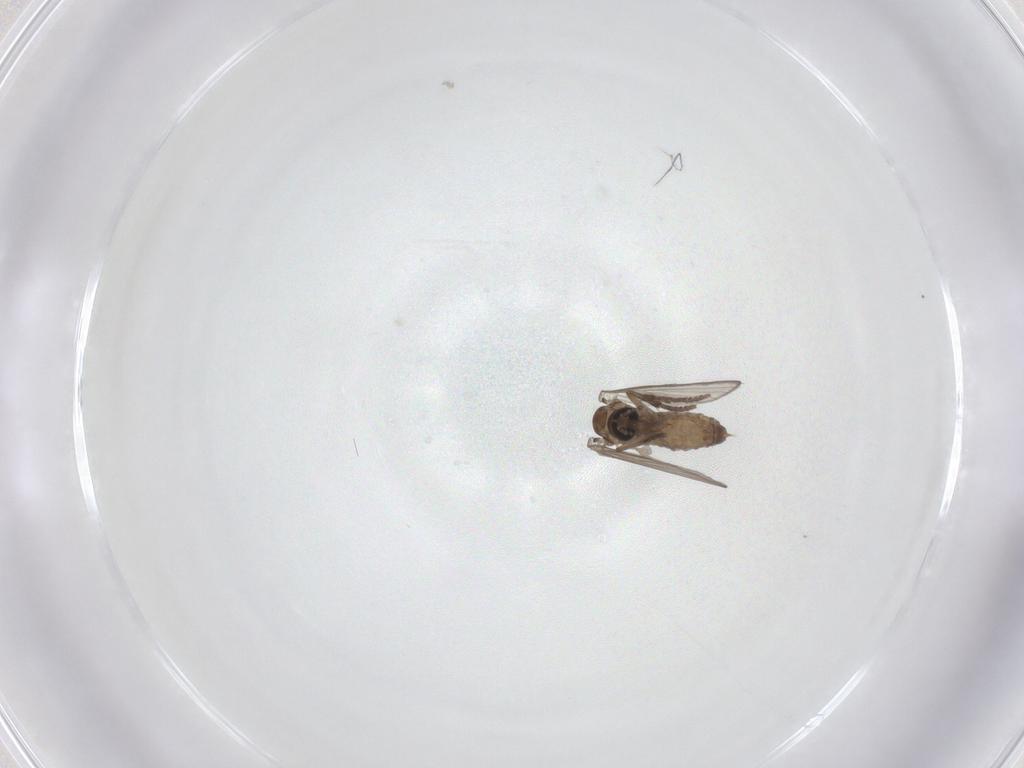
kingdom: Animalia
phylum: Arthropoda
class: Insecta
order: Diptera
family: Psychodidae
